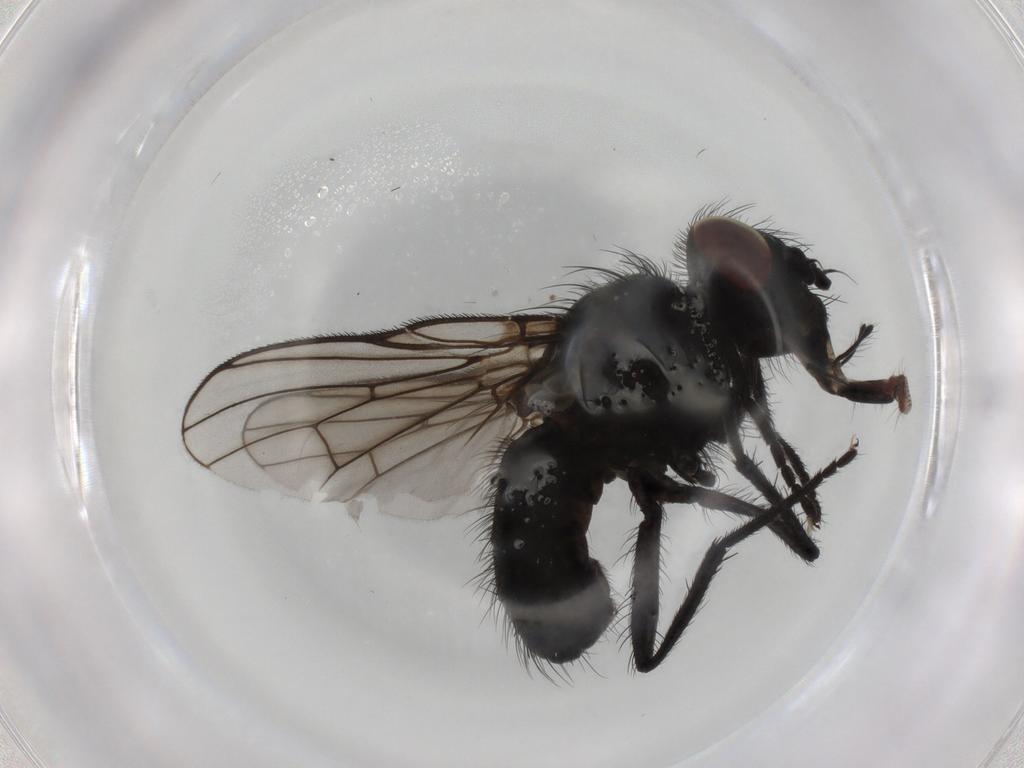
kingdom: Animalia
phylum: Arthropoda
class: Insecta
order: Diptera
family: Muscidae
